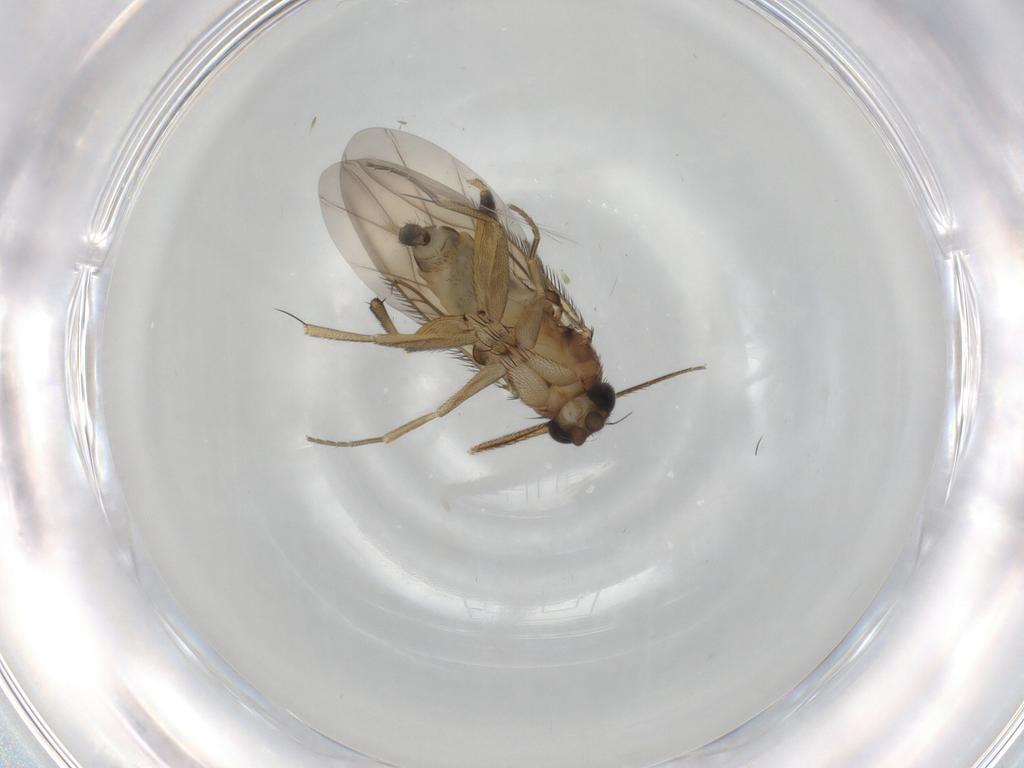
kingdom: Animalia
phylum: Arthropoda
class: Insecta
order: Diptera
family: Phoridae
